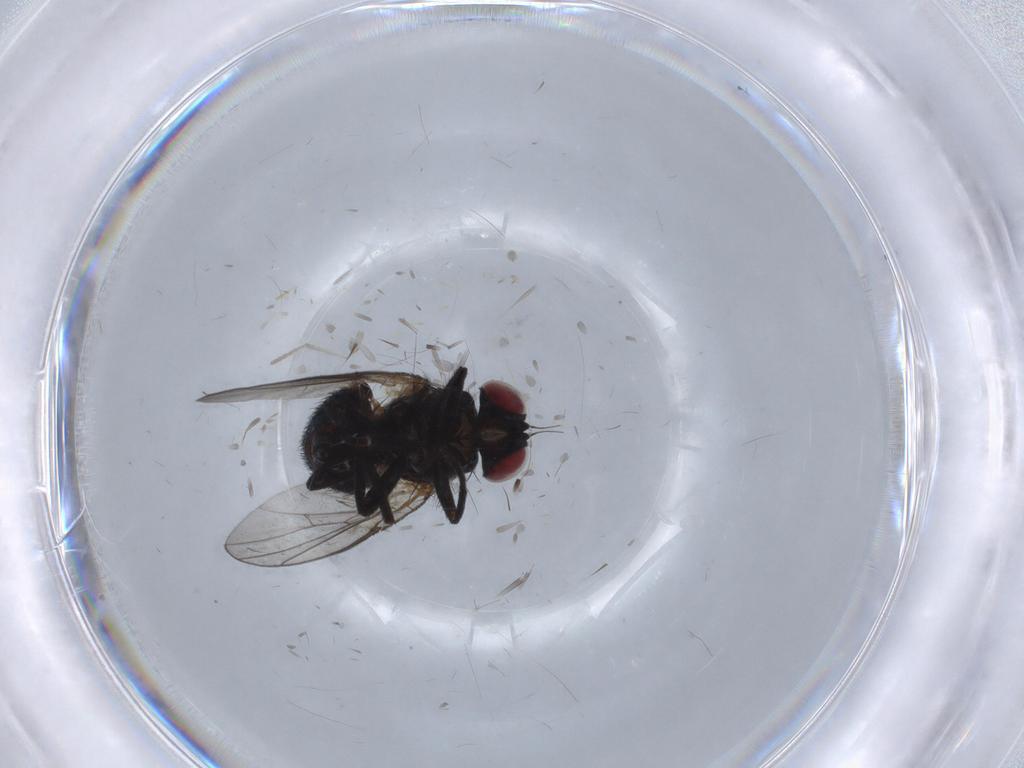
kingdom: Animalia
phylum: Arthropoda
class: Insecta
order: Diptera
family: Agromyzidae
